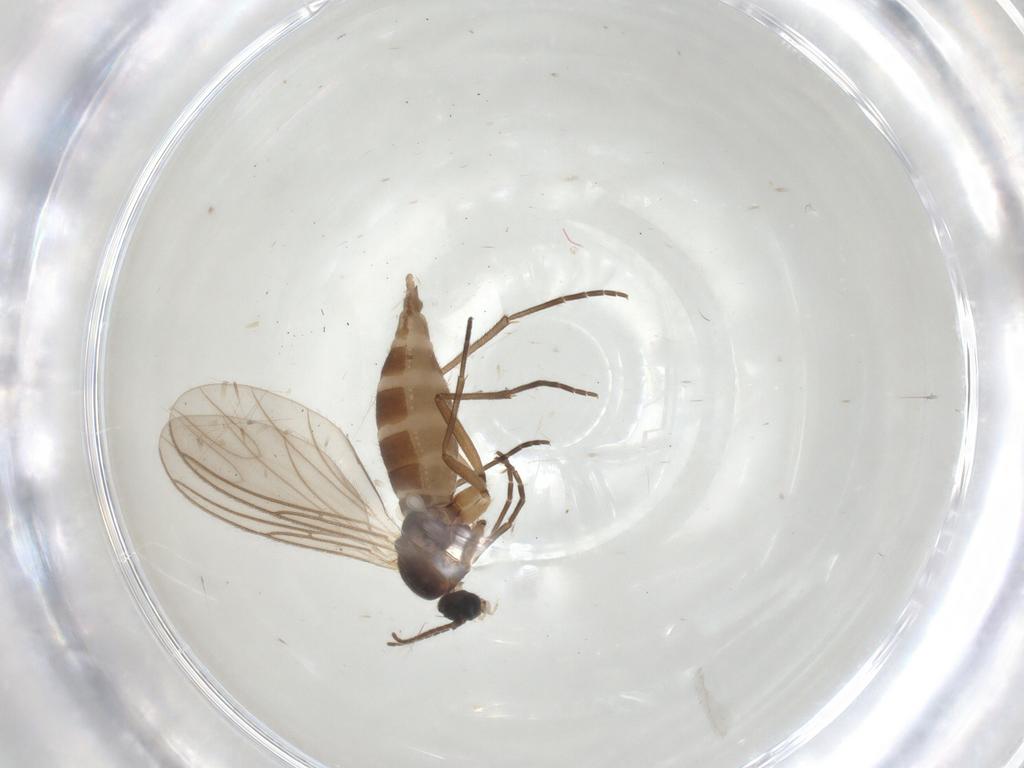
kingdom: Animalia
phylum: Arthropoda
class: Insecta
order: Diptera
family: Sciaridae
